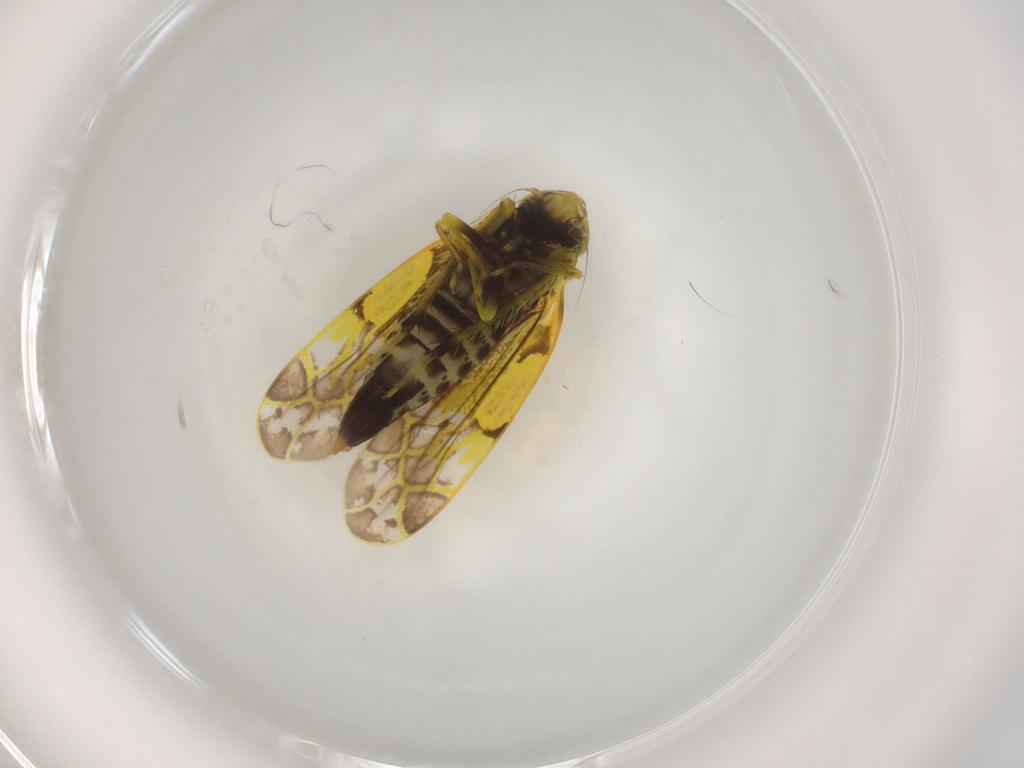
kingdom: Animalia
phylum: Arthropoda
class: Insecta
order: Hemiptera
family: Cicadellidae
